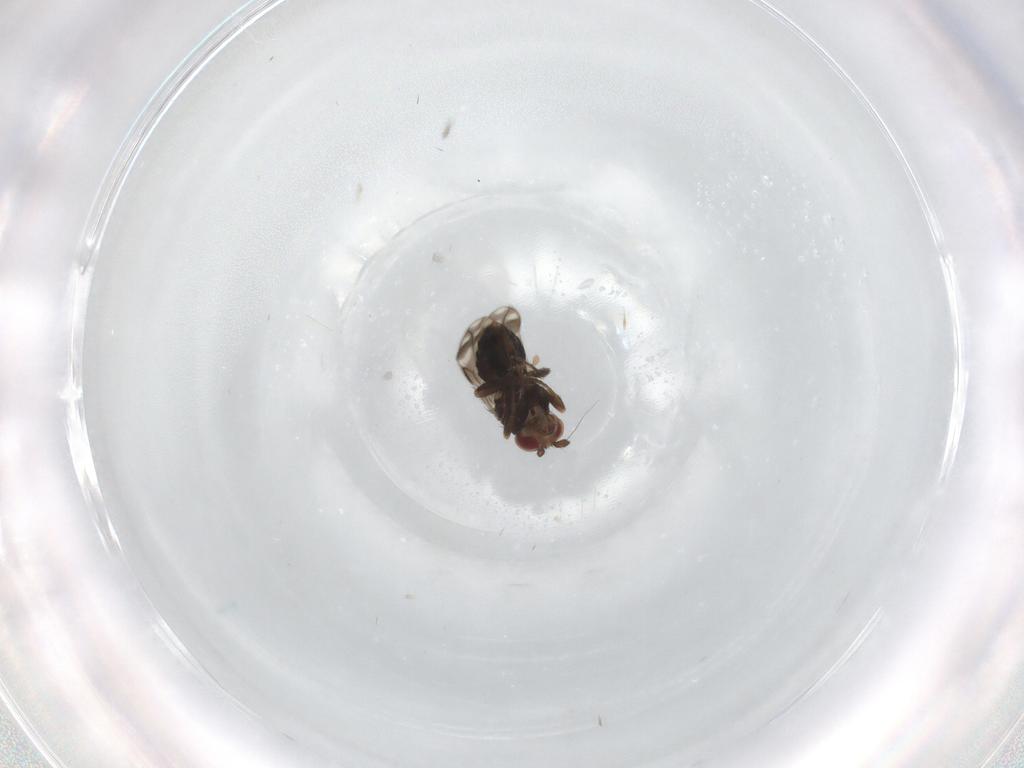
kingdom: Animalia
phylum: Arthropoda
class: Insecta
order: Diptera
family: Sphaeroceridae
